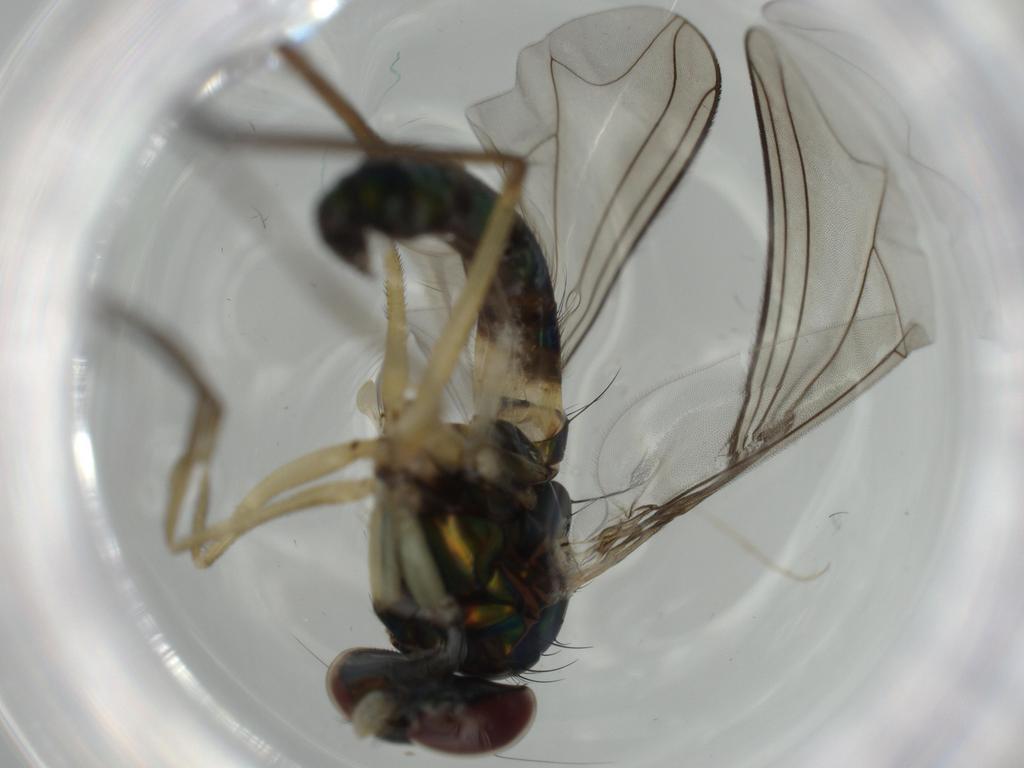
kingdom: Animalia
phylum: Arthropoda
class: Insecta
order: Diptera
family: Dolichopodidae
